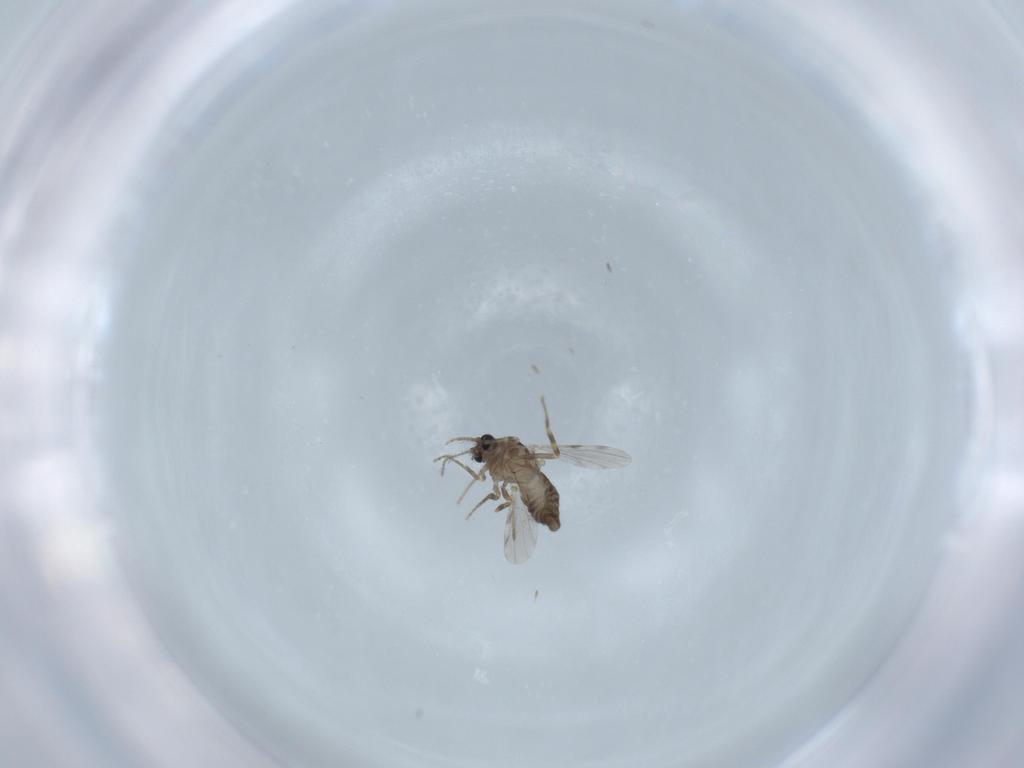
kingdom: Animalia
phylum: Arthropoda
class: Insecta
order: Diptera
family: Ceratopogonidae
